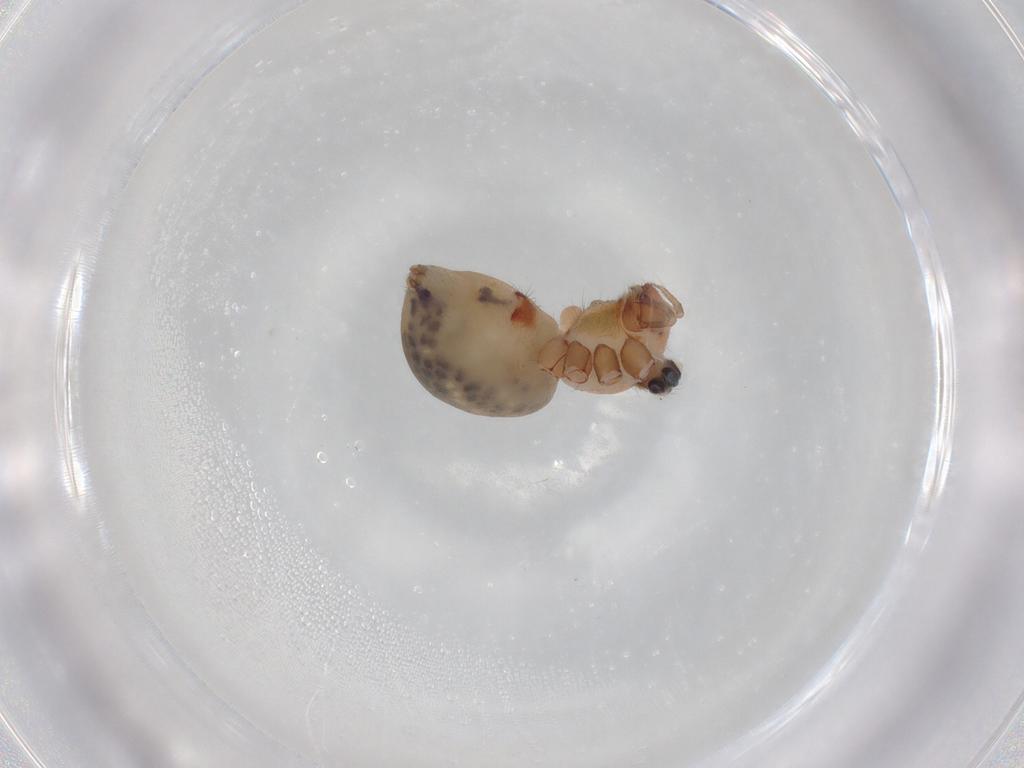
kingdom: Animalia
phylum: Arthropoda
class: Arachnida
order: Araneae
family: Pholcidae
